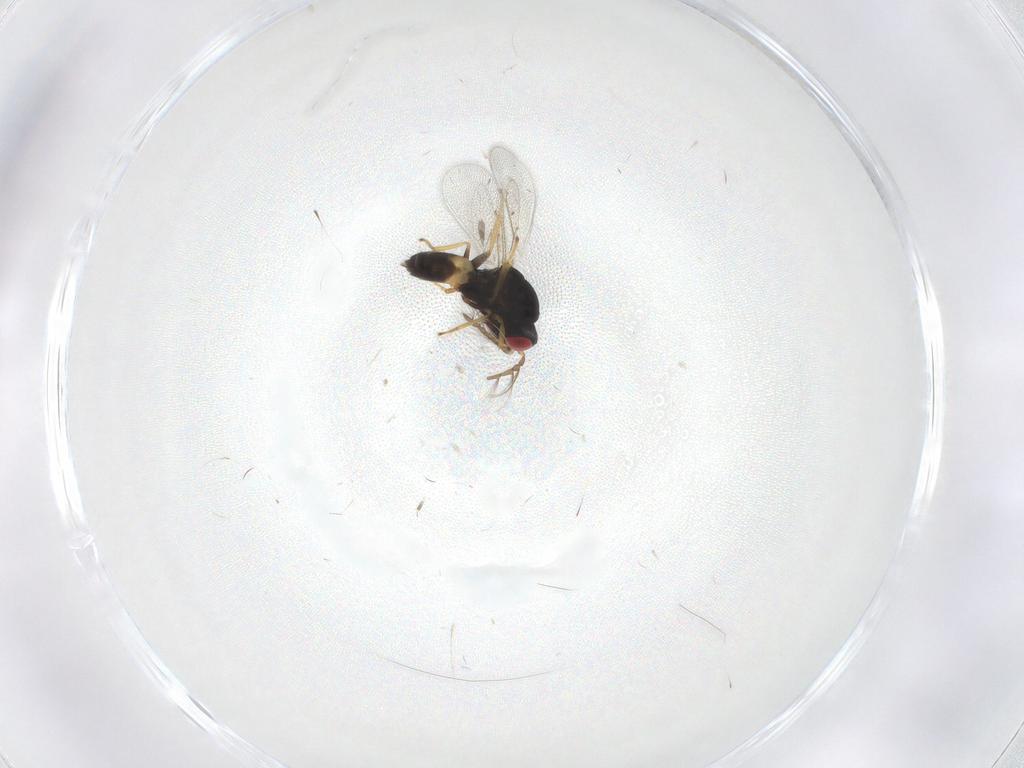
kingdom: Animalia
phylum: Arthropoda
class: Insecta
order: Hymenoptera
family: Eulophidae
